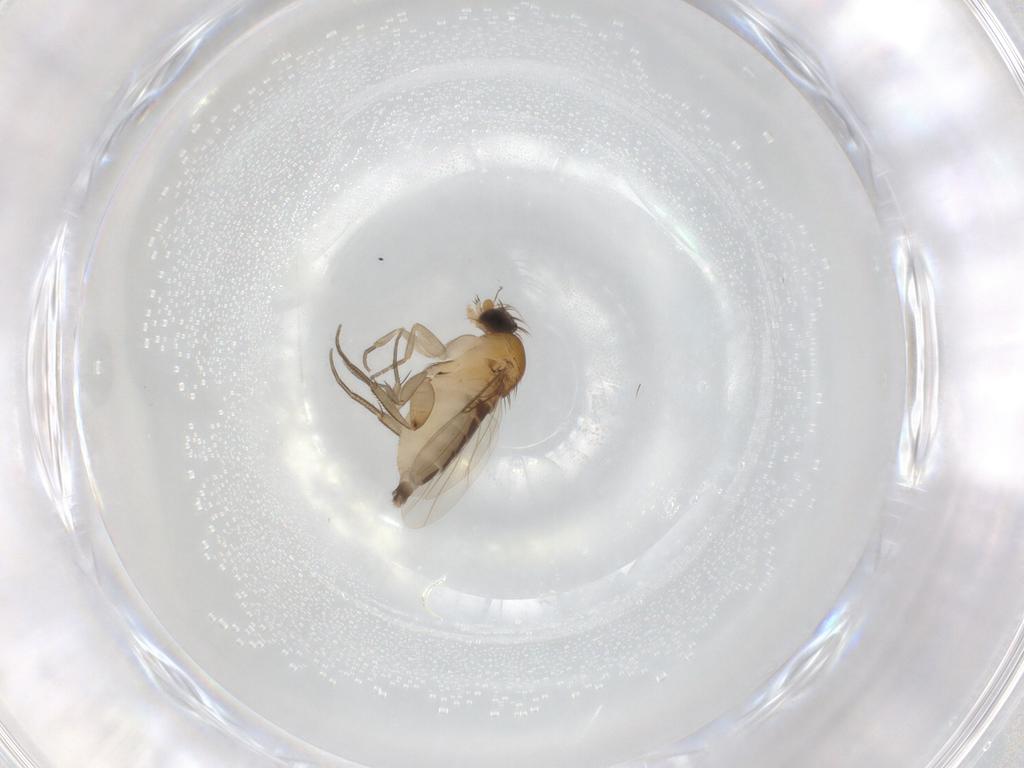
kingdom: Animalia
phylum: Arthropoda
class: Insecta
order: Diptera
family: Phoridae
